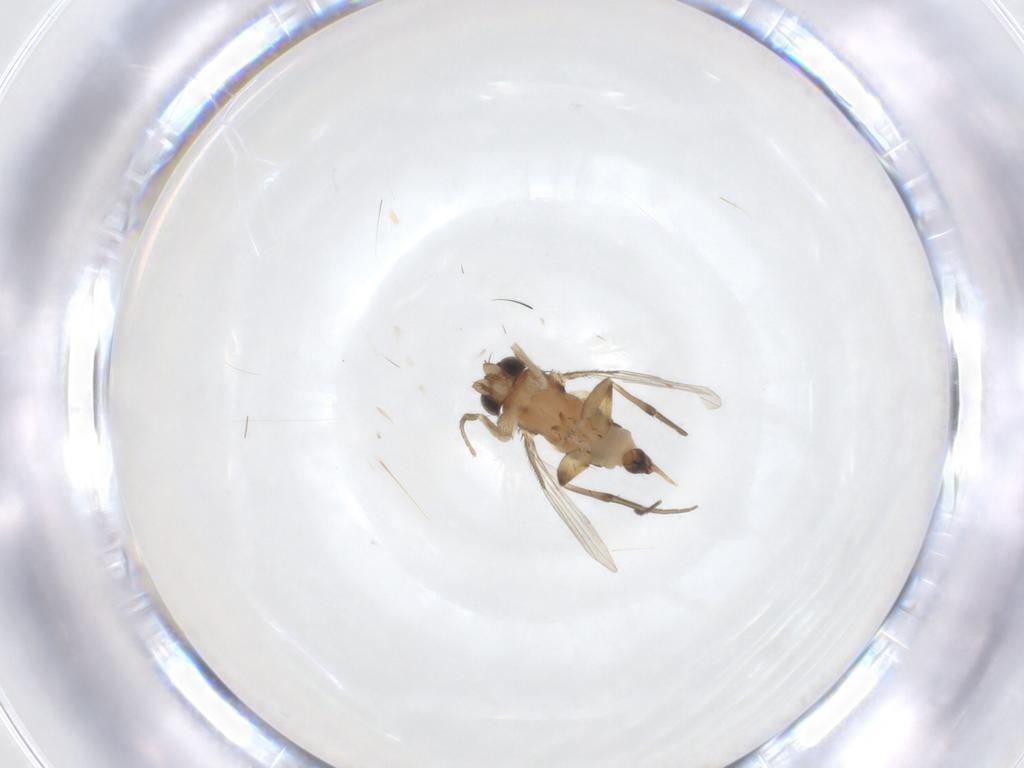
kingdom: Animalia
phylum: Arthropoda
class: Insecta
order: Diptera
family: Phoridae
